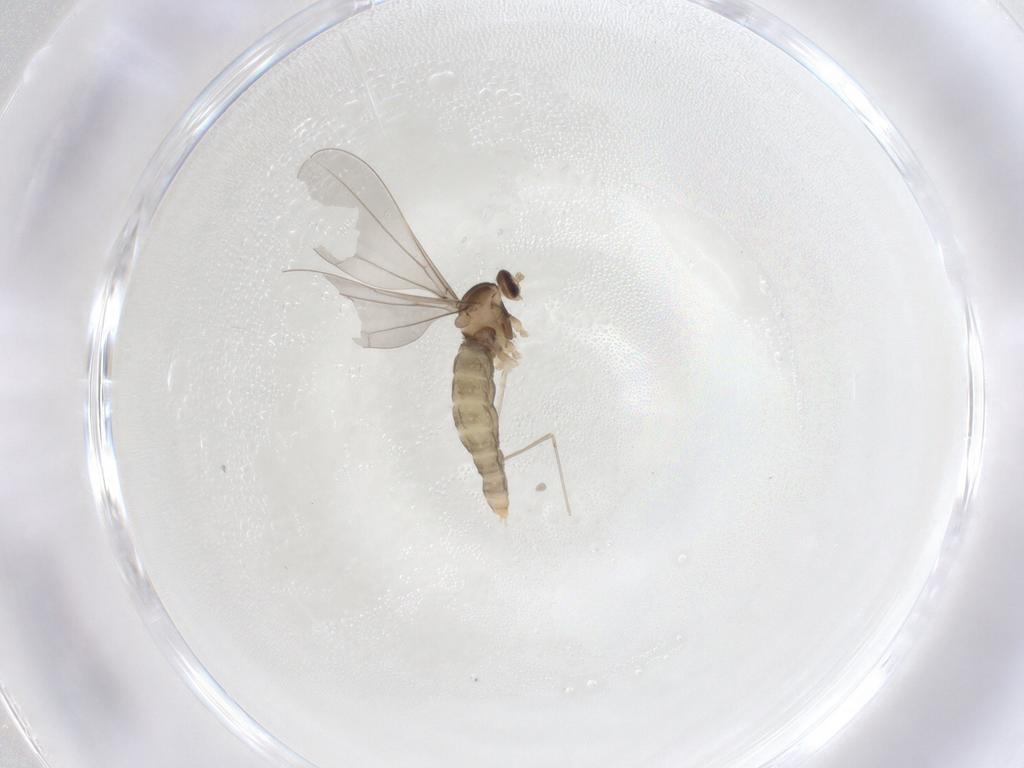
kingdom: Animalia
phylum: Arthropoda
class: Insecta
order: Diptera
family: Cecidomyiidae
